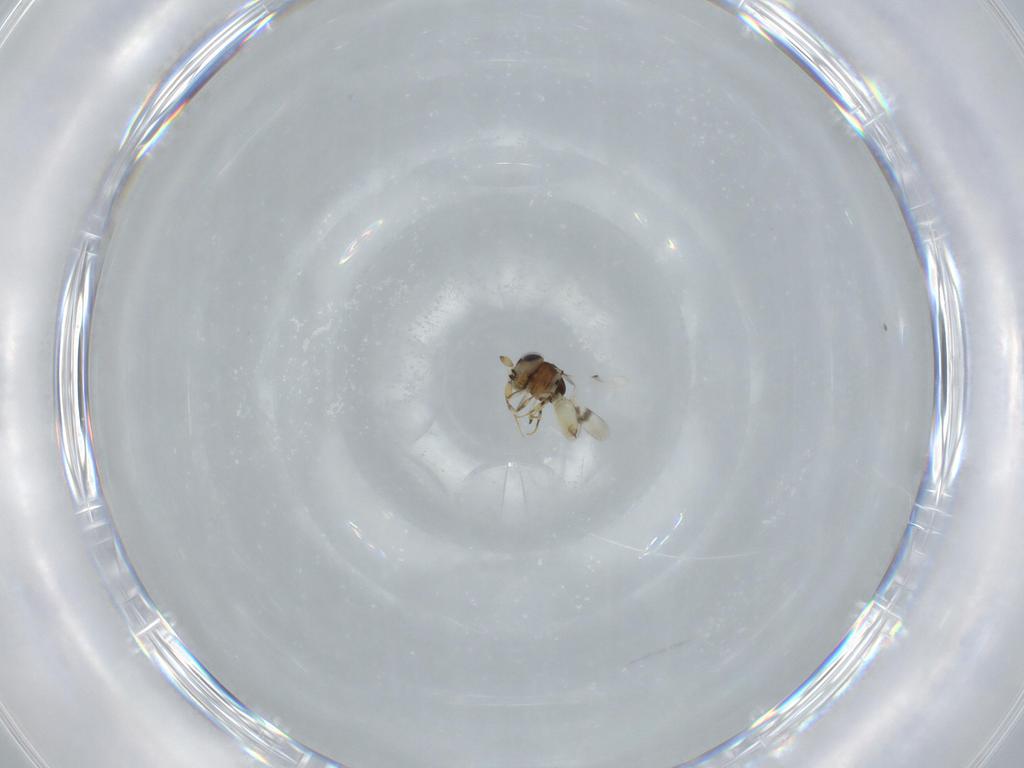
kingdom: Animalia
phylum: Arthropoda
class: Insecta
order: Hymenoptera
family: Scelionidae
